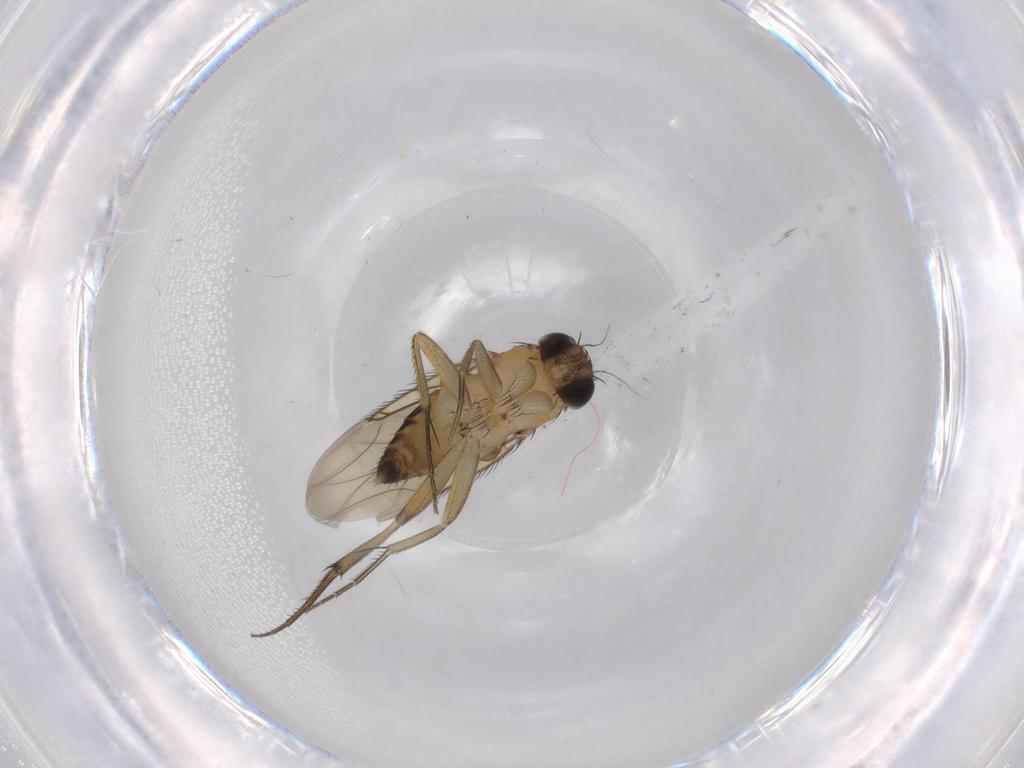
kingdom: Animalia
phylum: Arthropoda
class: Insecta
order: Diptera
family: Phoridae
